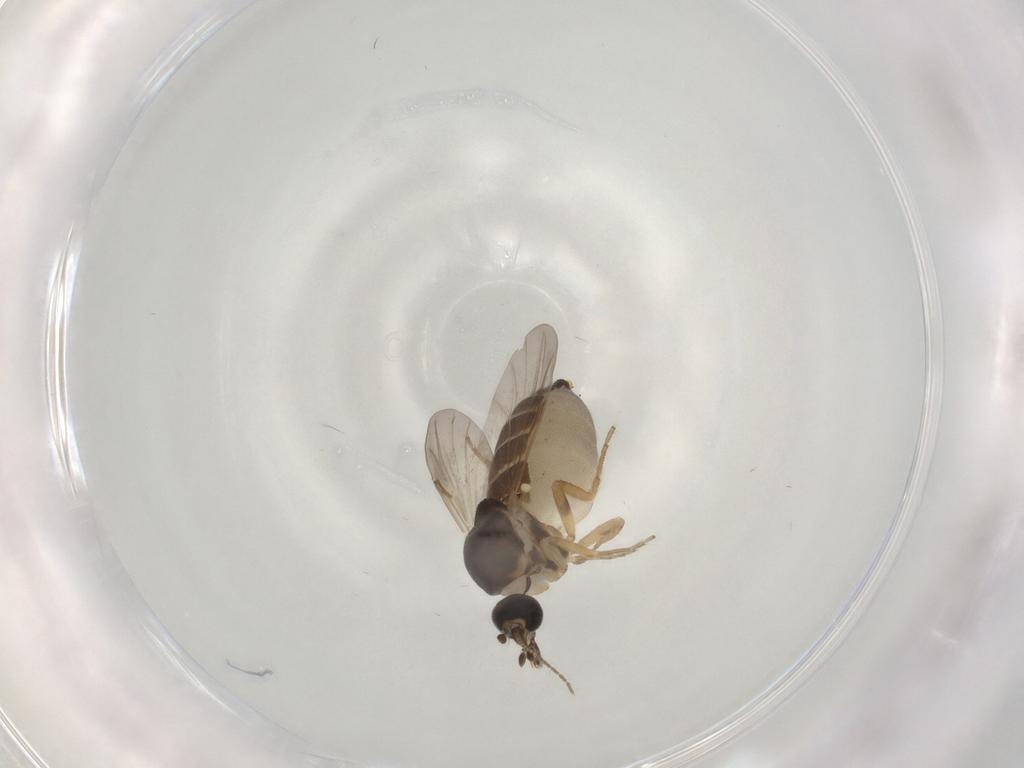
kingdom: Animalia
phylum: Arthropoda
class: Insecta
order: Diptera
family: Ceratopogonidae
